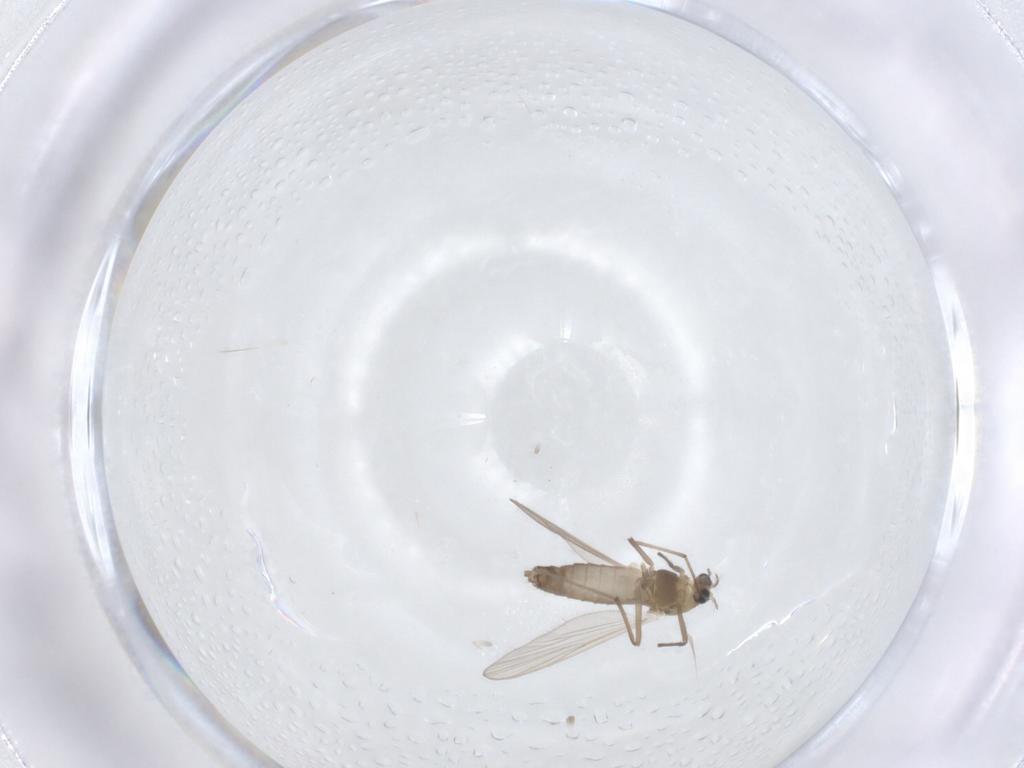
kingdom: Animalia
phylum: Arthropoda
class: Insecta
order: Diptera
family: Chironomidae
